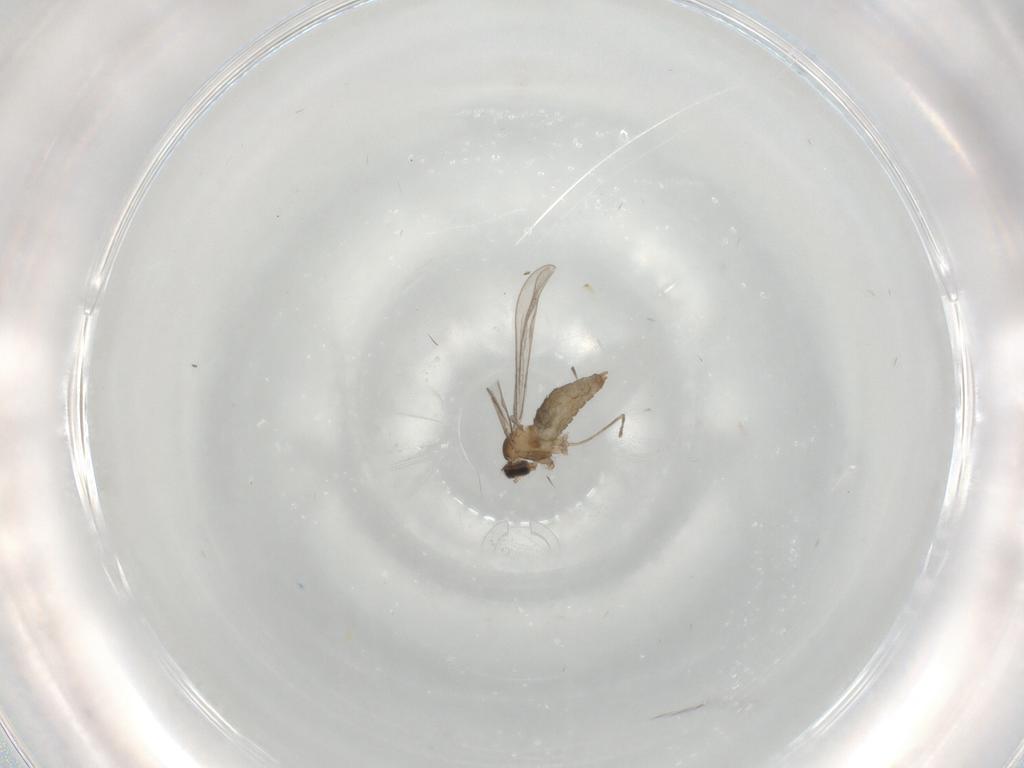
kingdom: Animalia
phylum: Arthropoda
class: Insecta
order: Diptera
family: Cecidomyiidae
